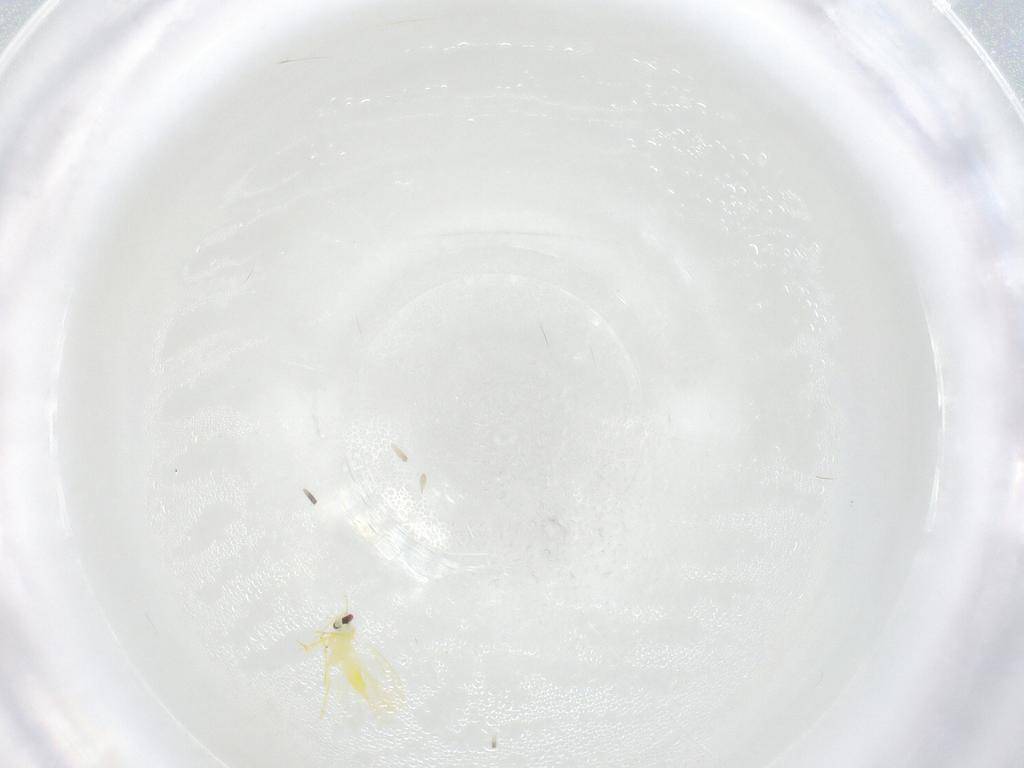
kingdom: Animalia
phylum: Arthropoda
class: Insecta
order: Hemiptera
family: Aleyrodidae
